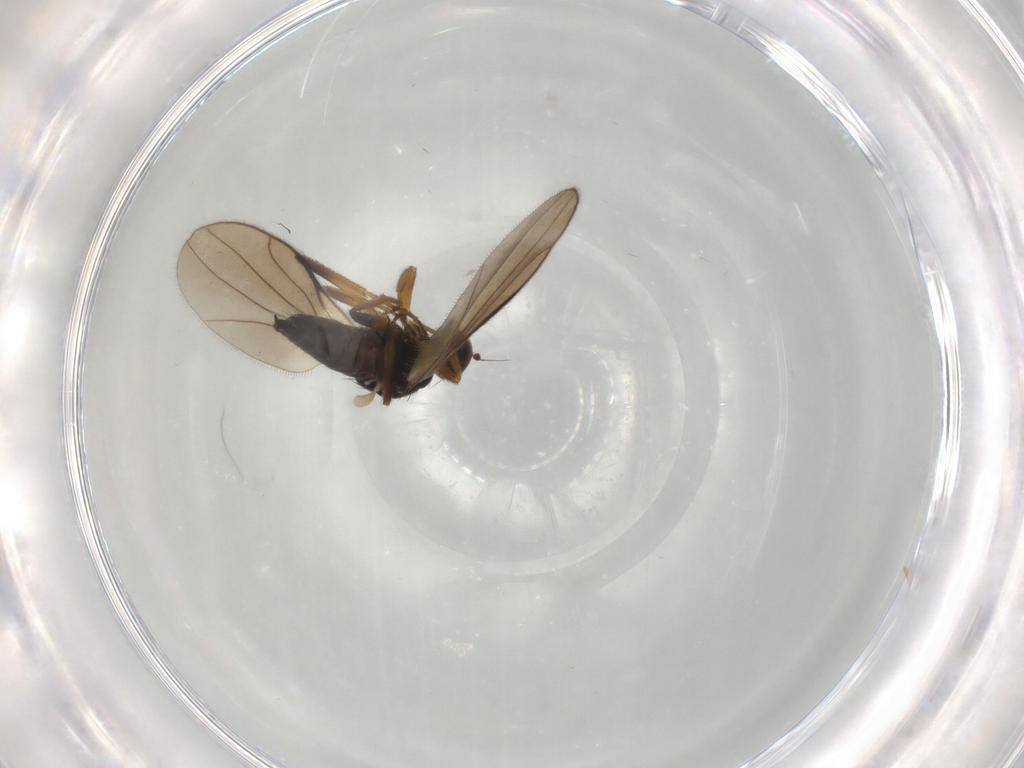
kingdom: Animalia
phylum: Arthropoda
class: Insecta
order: Diptera
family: Hybotidae
